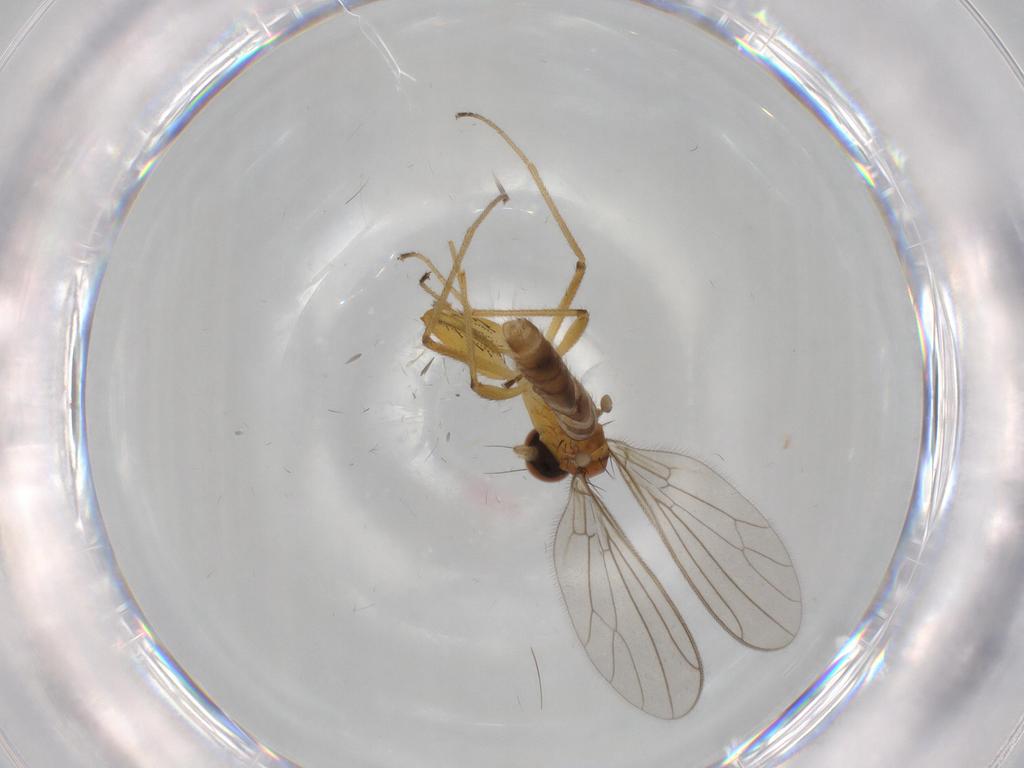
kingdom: Animalia
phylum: Arthropoda
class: Insecta
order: Diptera
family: Empididae
